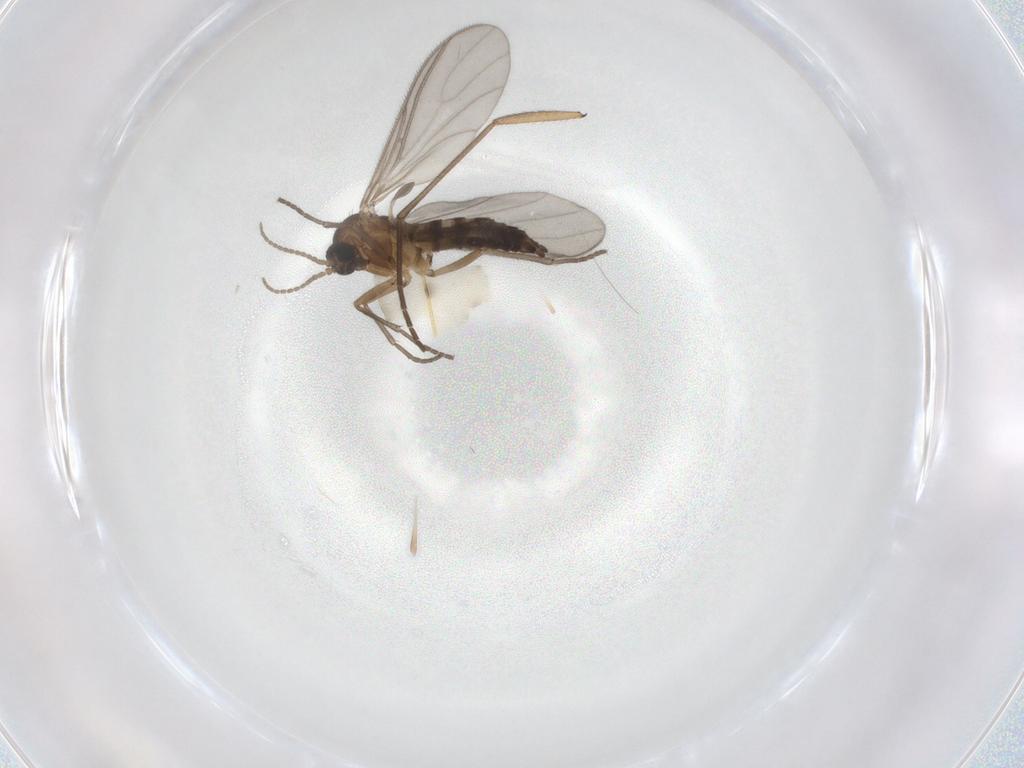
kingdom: Animalia
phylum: Arthropoda
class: Insecta
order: Diptera
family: Sciaridae
